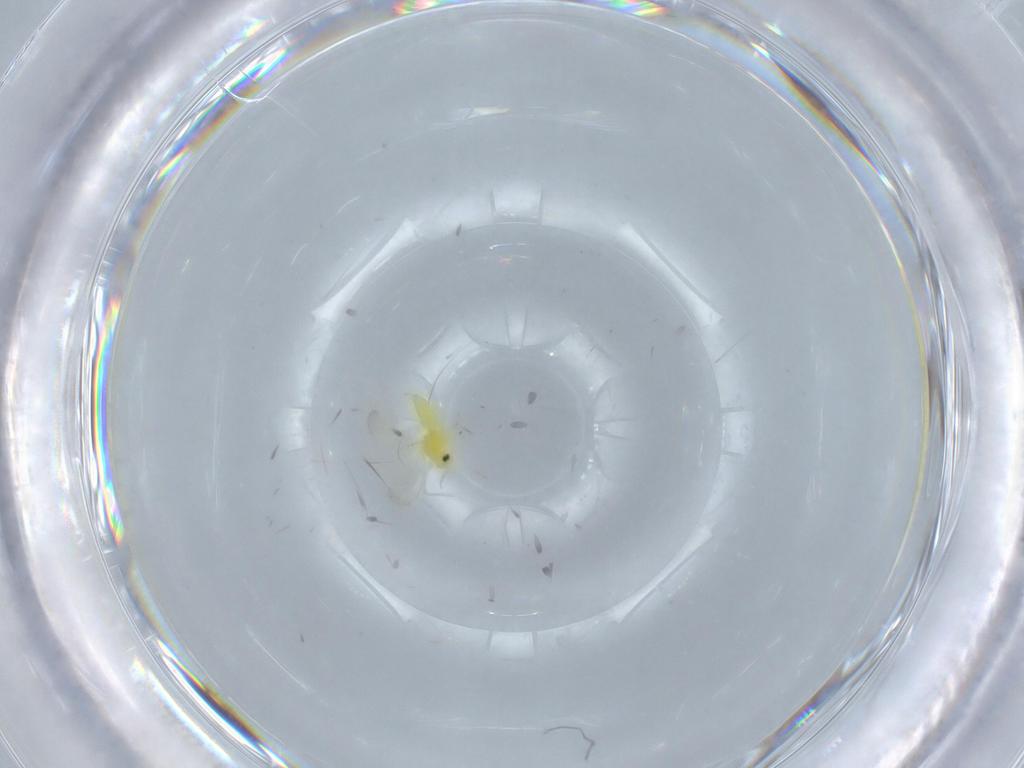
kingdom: Animalia
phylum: Arthropoda
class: Insecta
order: Hemiptera
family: Aleyrodidae
